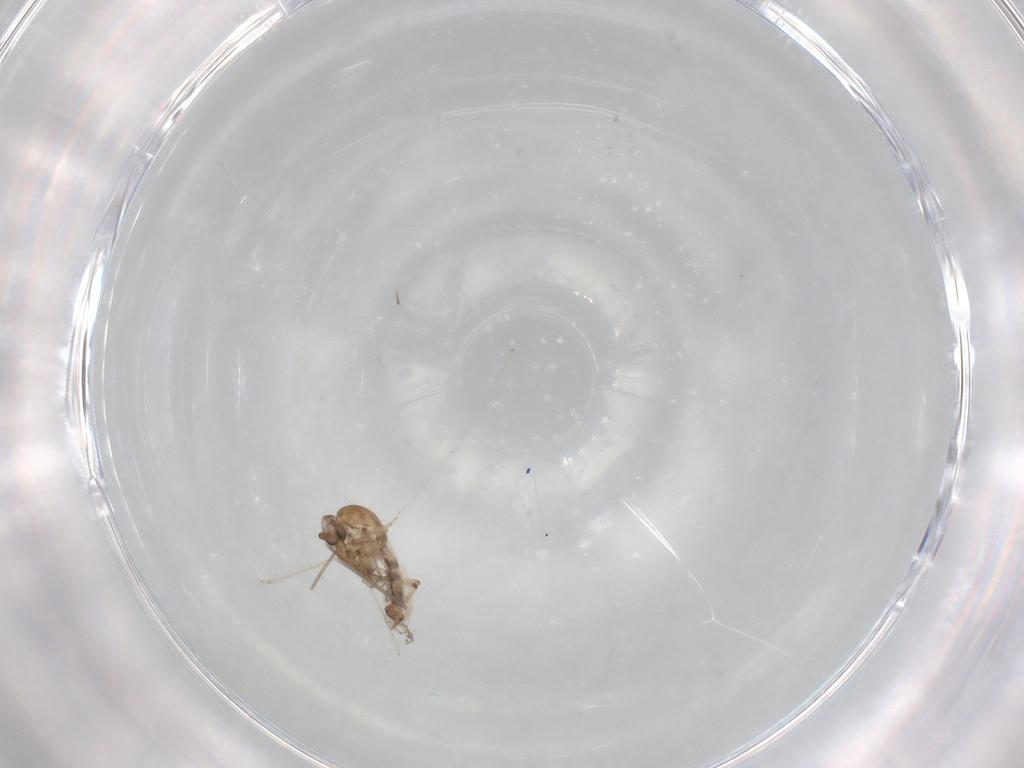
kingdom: Animalia
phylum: Arthropoda
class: Insecta
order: Diptera
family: Ceratopogonidae
